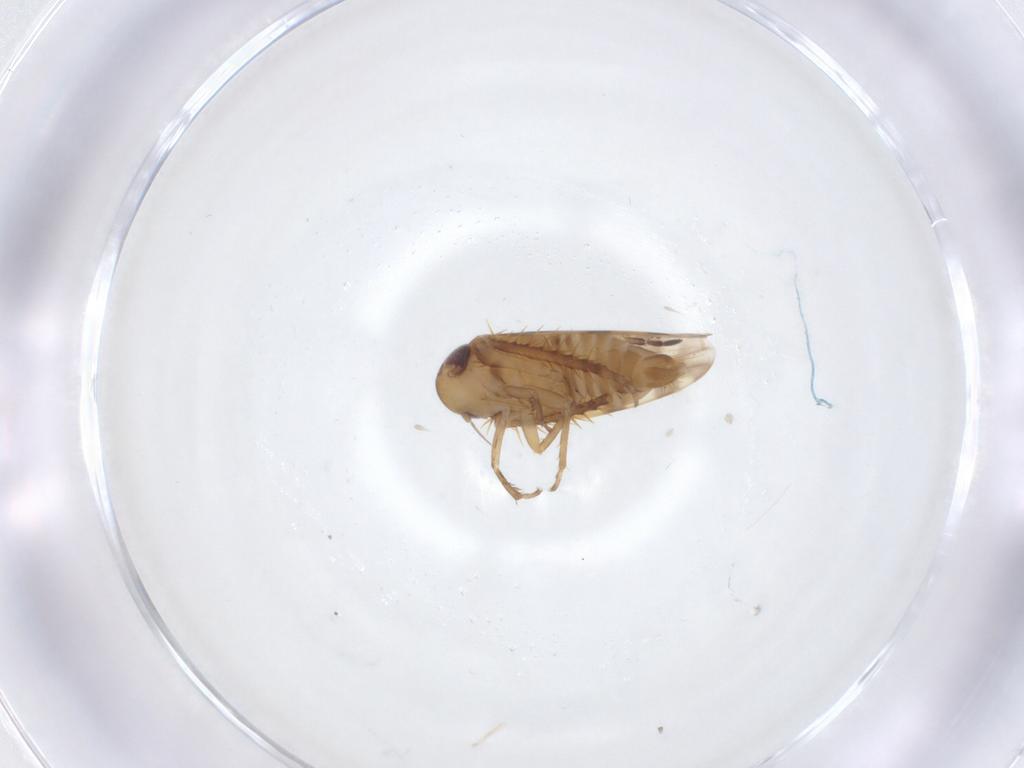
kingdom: Animalia
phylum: Arthropoda
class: Insecta
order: Hemiptera
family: Cicadellidae
